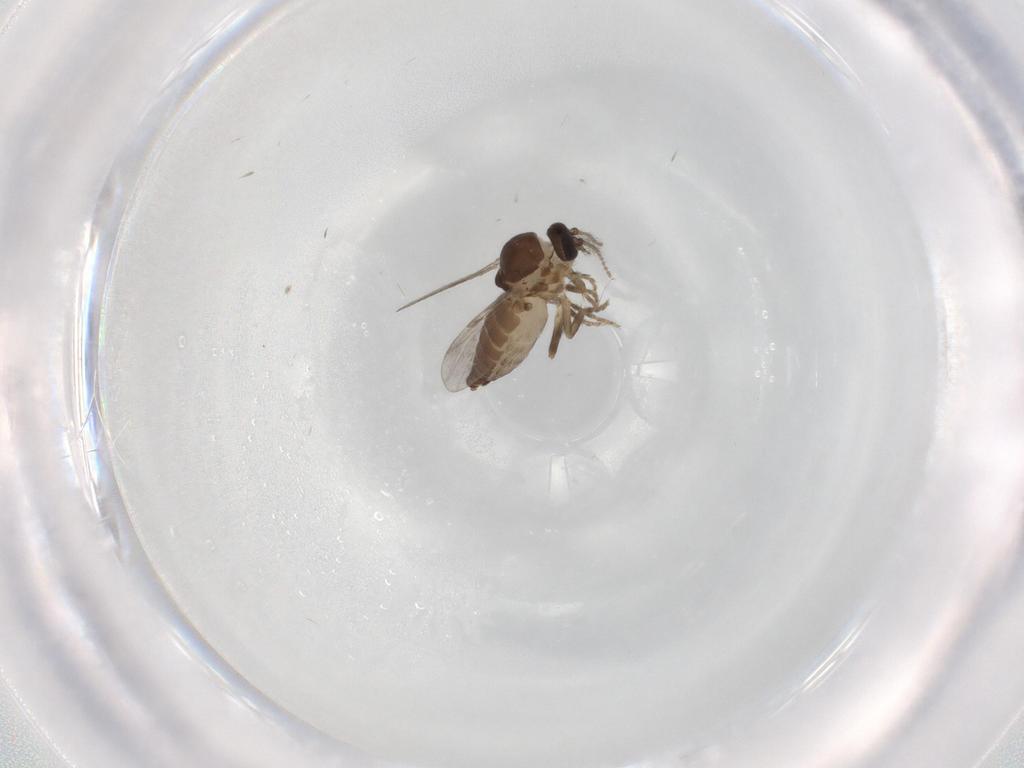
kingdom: Animalia
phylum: Arthropoda
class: Insecta
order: Diptera
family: Ceratopogonidae
